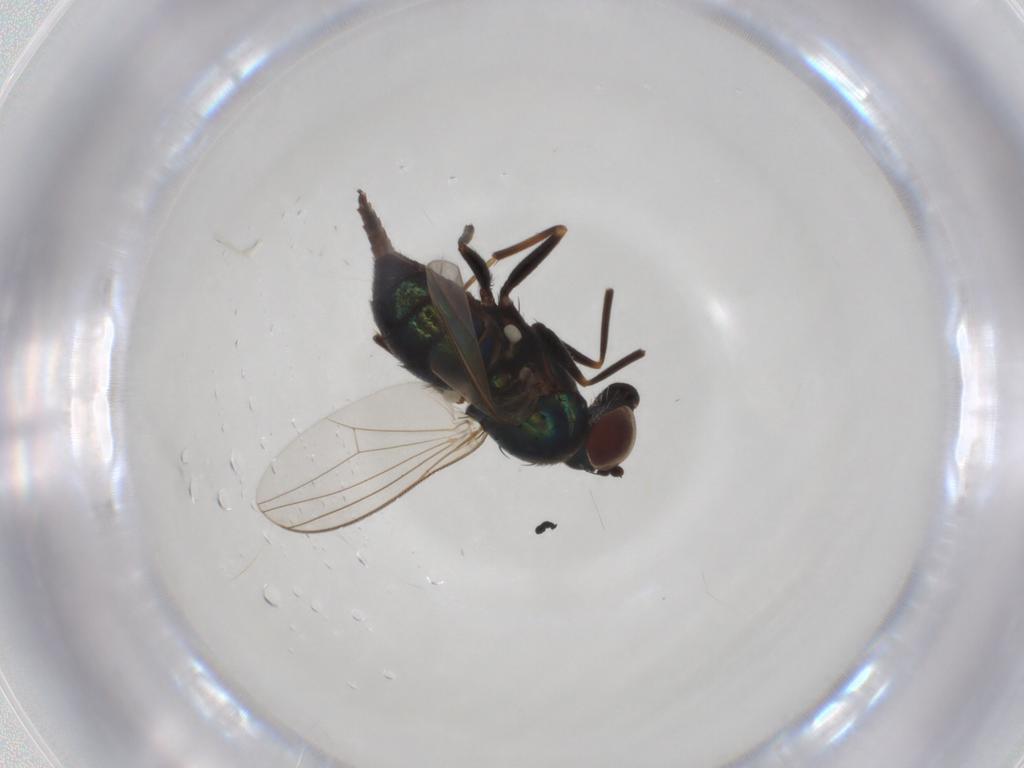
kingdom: Animalia
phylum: Arthropoda
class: Insecta
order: Diptera
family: Dolichopodidae
